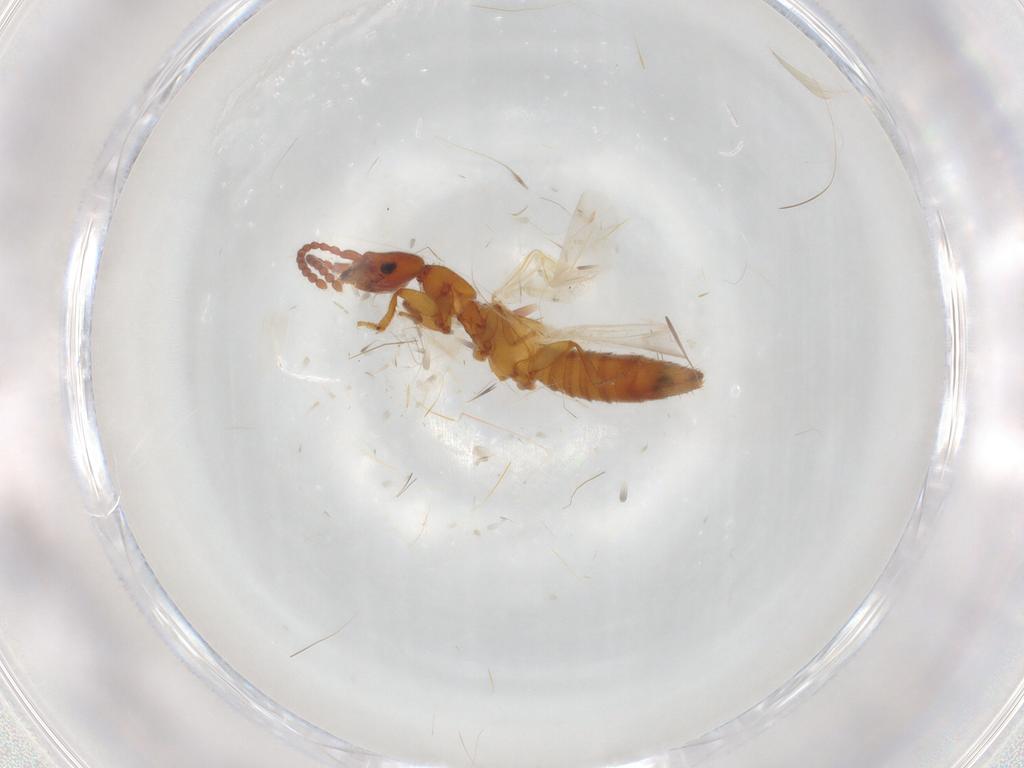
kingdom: Animalia
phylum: Arthropoda
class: Insecta
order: Coleoptera
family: Staphylinidae
